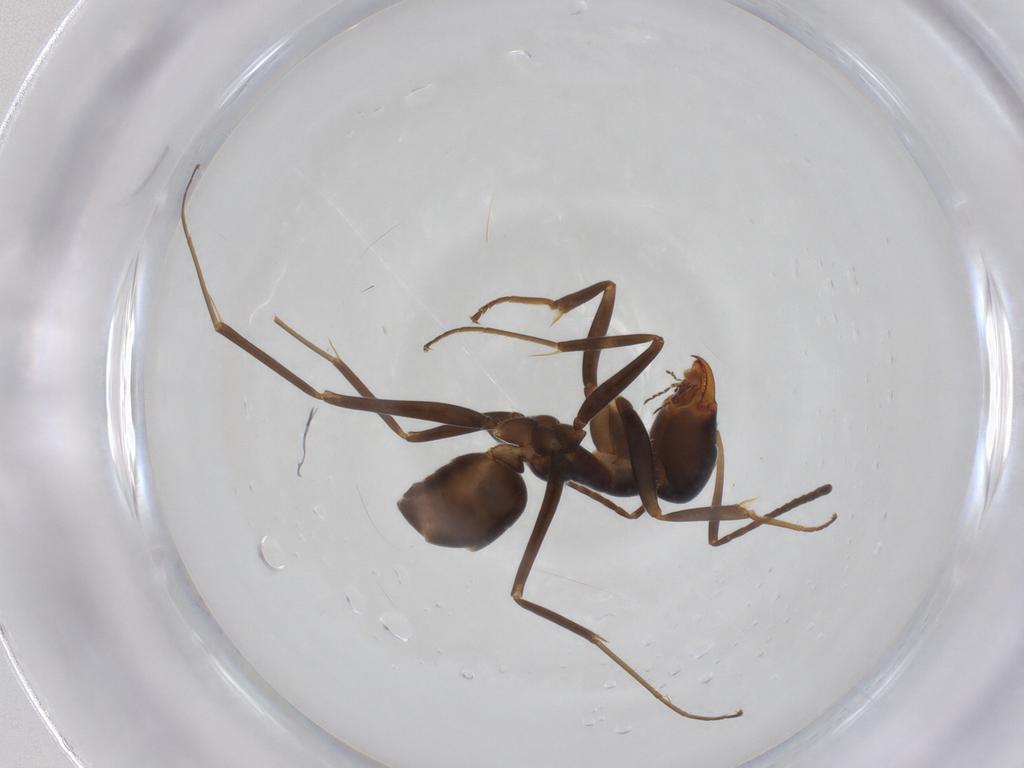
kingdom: Animalia
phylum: Arthropoda
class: Insecta
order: Hymenoptera
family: Formicidae
